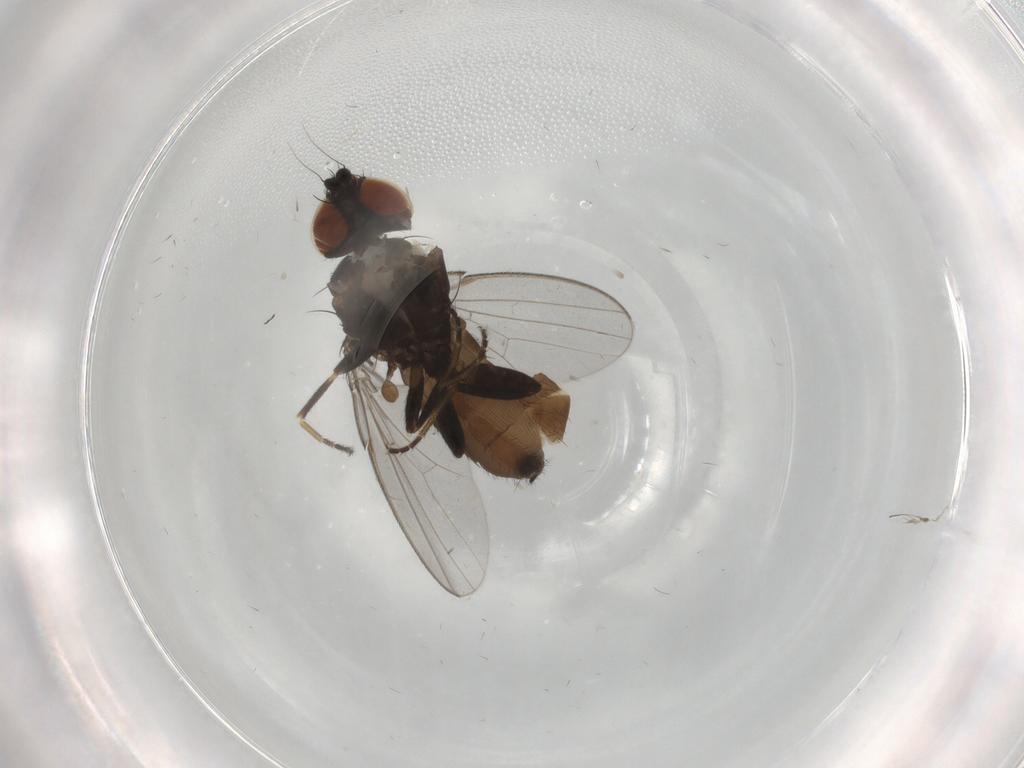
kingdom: Animalia
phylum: Arthropoda
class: Insecta
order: Diptera
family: Milichiidae
